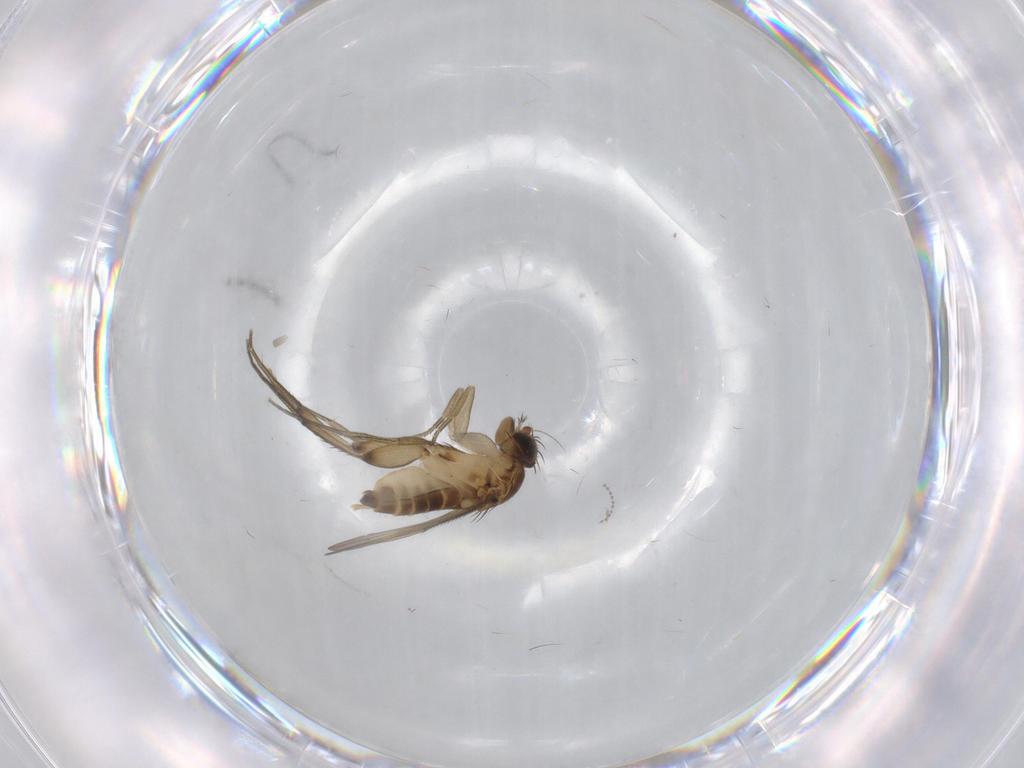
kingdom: Animalia
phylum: Arthropoda
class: Insecta
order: Diptera
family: Phoridae
